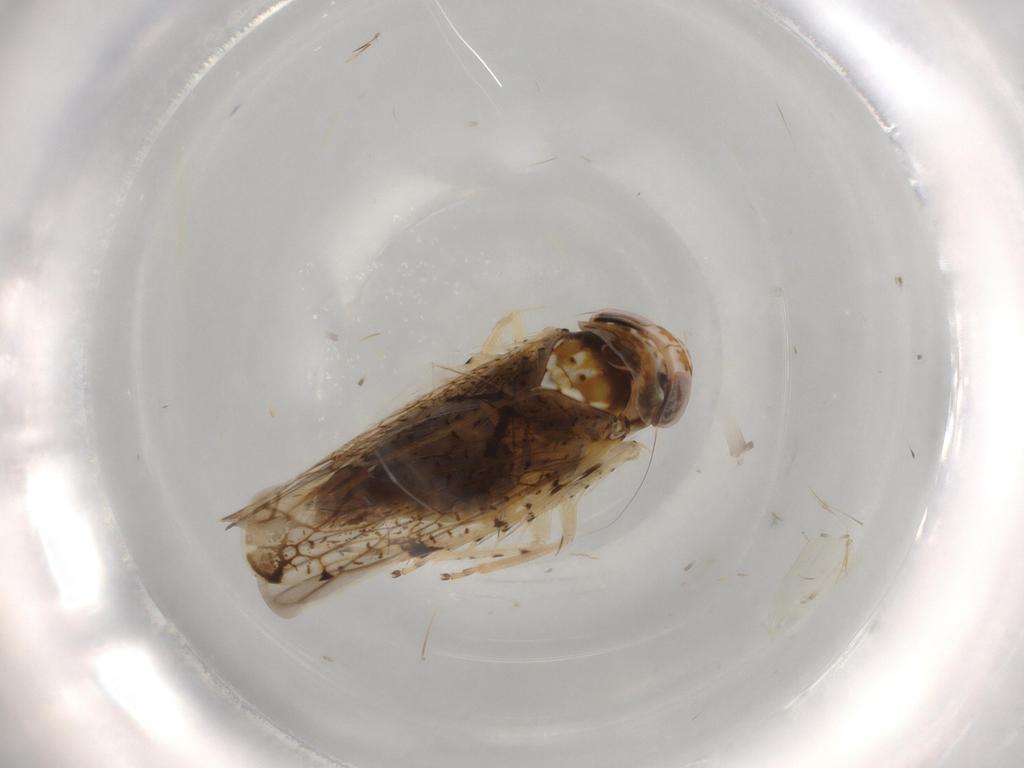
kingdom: Animalia
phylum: Arthropoda
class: Insecta
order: Hemiptera
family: Cicadellidae
